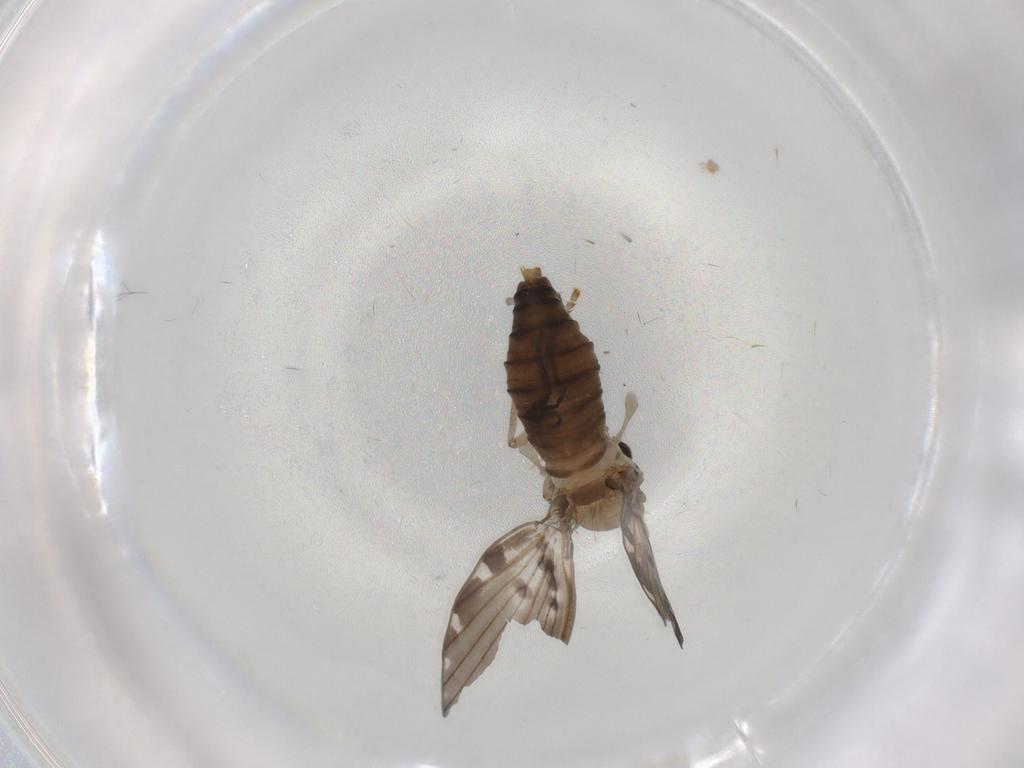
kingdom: Animalia
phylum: Arthropoda
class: Insecta
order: Diptera
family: Psychodidae
